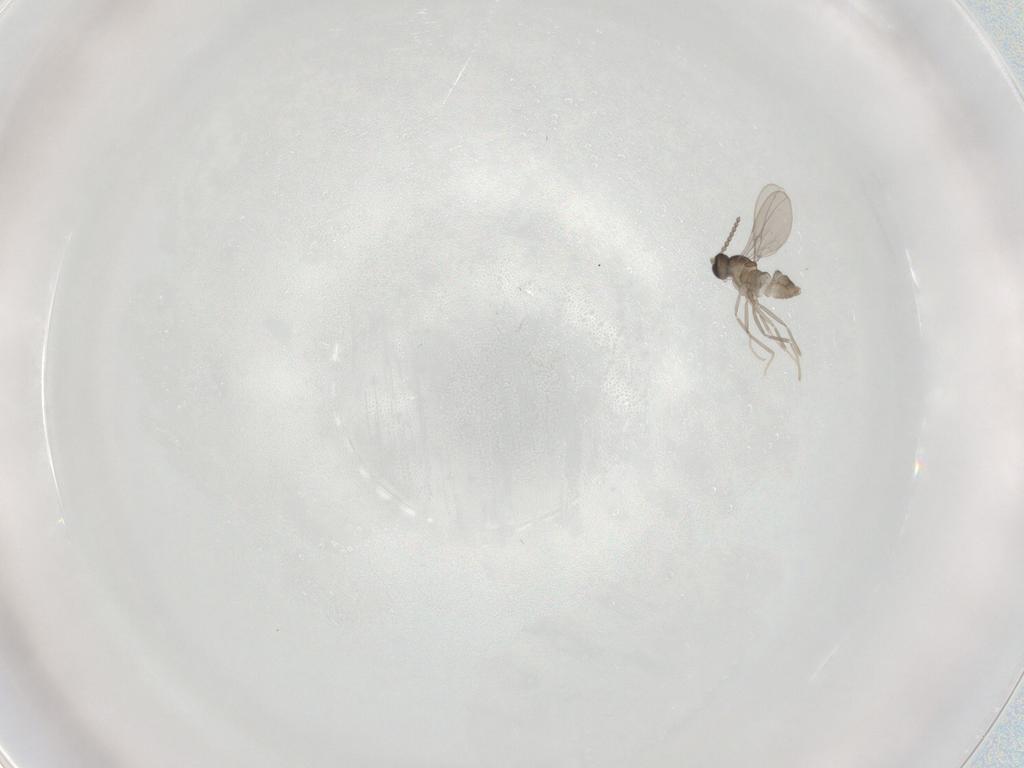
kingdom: Animalia
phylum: Arthropoda
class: Insecta
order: Diptera
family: Cecidomyiidae
